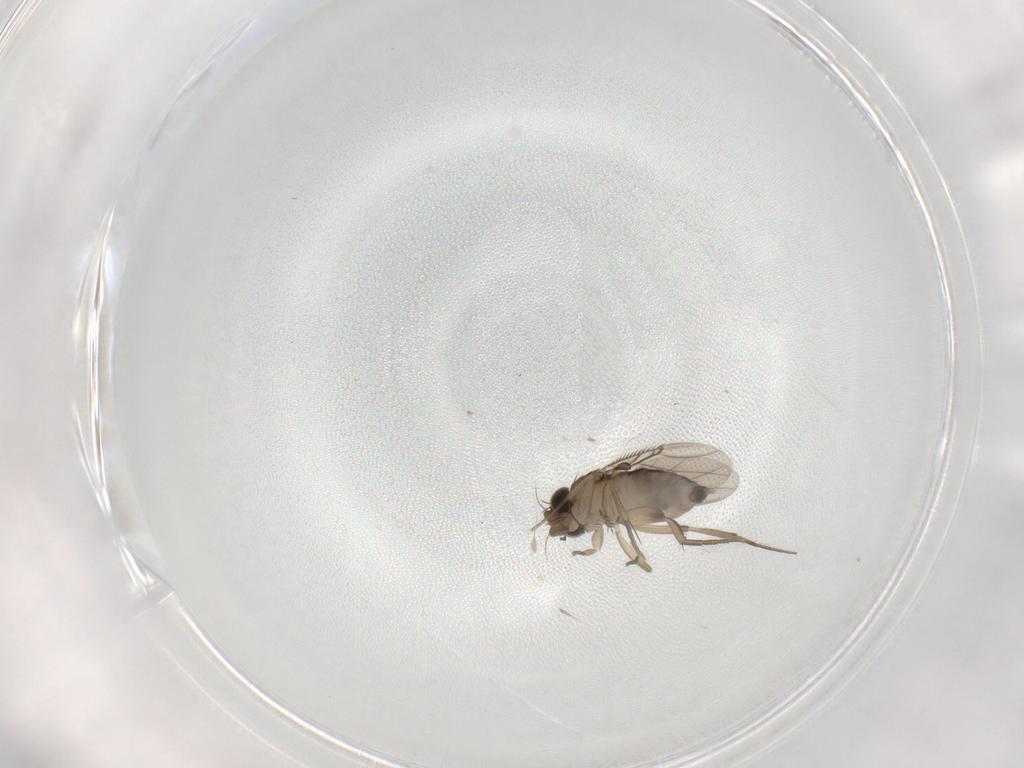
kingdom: Animalia
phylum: Arthropoda
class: Insecta
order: Diptera
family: Phoridae
